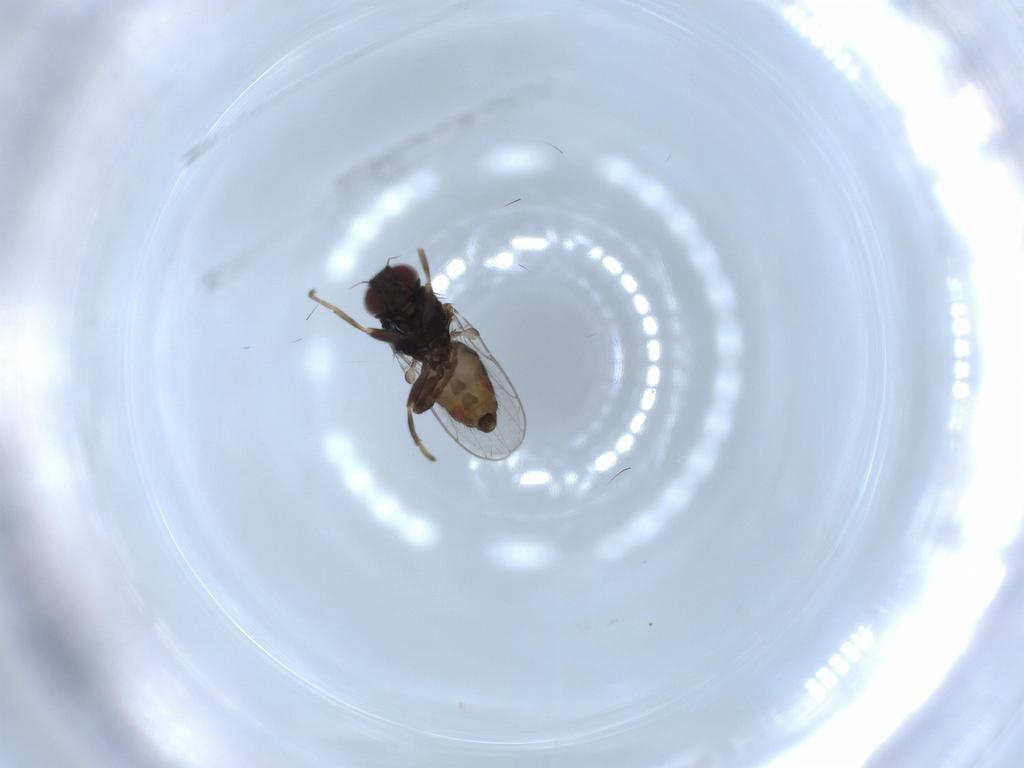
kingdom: Animalia
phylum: Arthropoda
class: Insecta
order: Diptera
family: Chloropidae
